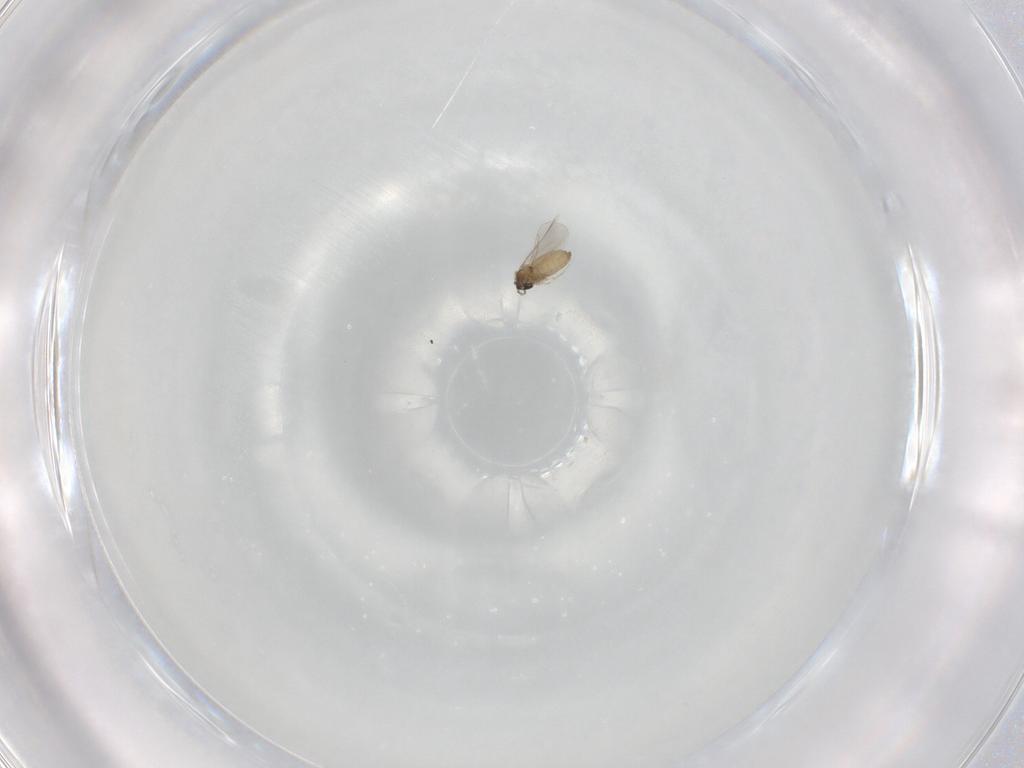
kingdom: Animalia
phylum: Arthropoda
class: Insecta
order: Diptera
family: Cecidomyiidae
